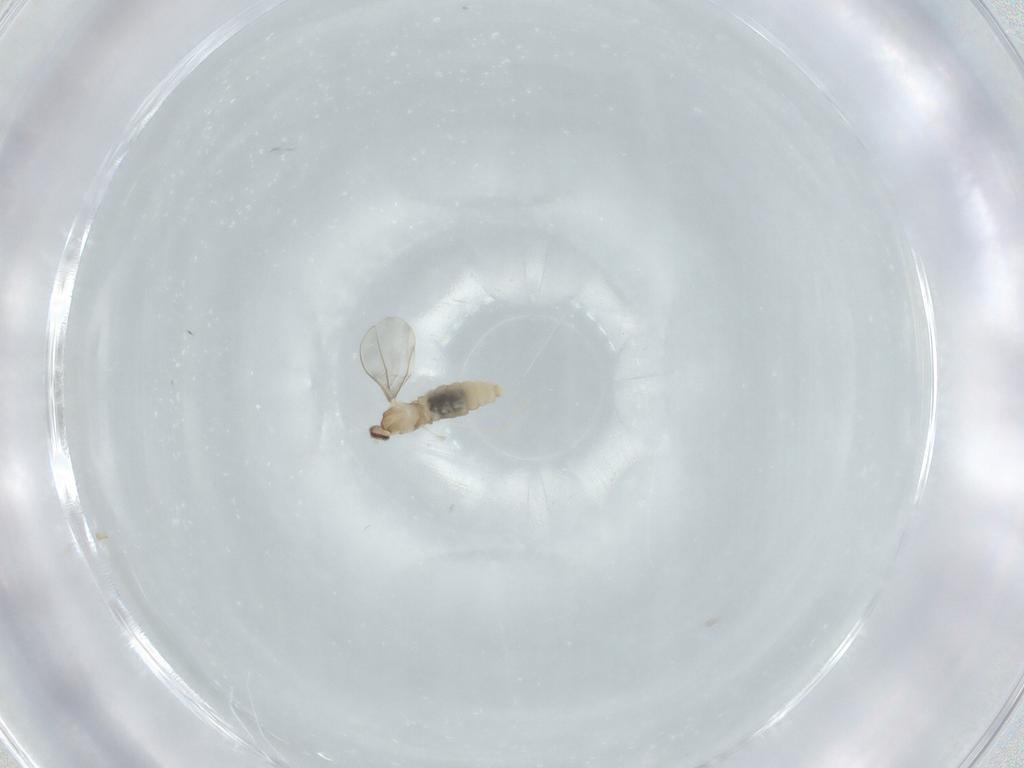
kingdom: Animalia
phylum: Arthropoda
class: Insecta
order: Diptera
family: Cecidomyiidae
